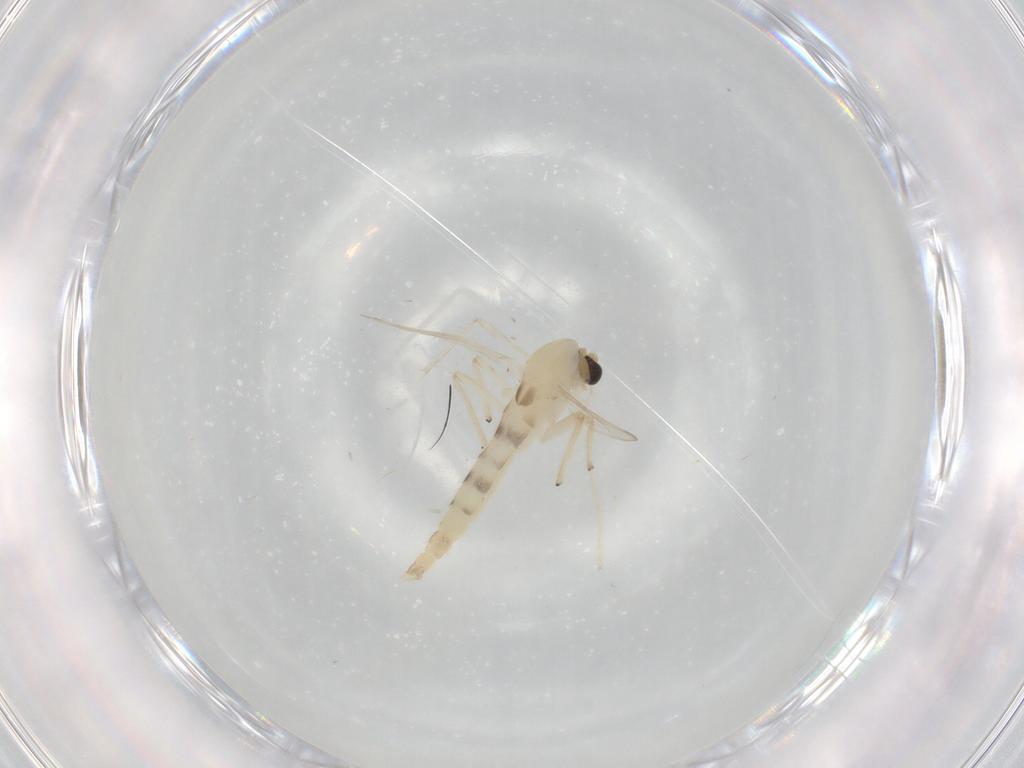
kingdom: Animalia
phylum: Arthropoda
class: Insecta
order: Diptera
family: Chironomidae
